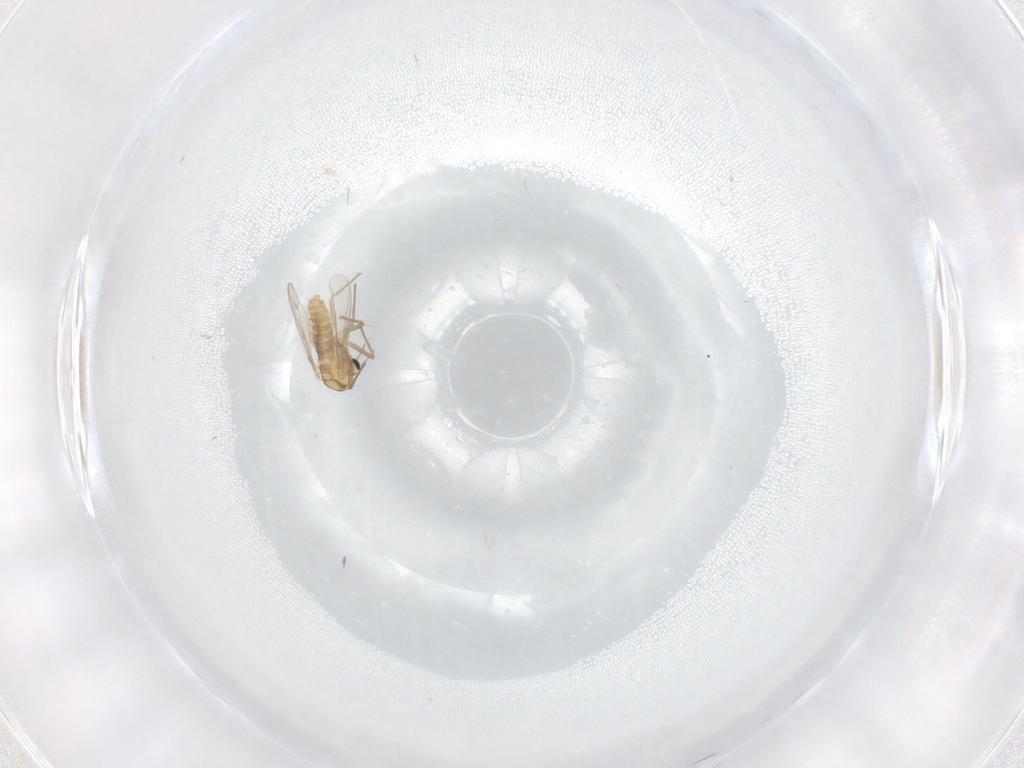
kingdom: Animalia
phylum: Arthropoda
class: Insecta
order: Diptera
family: Chironomidae
